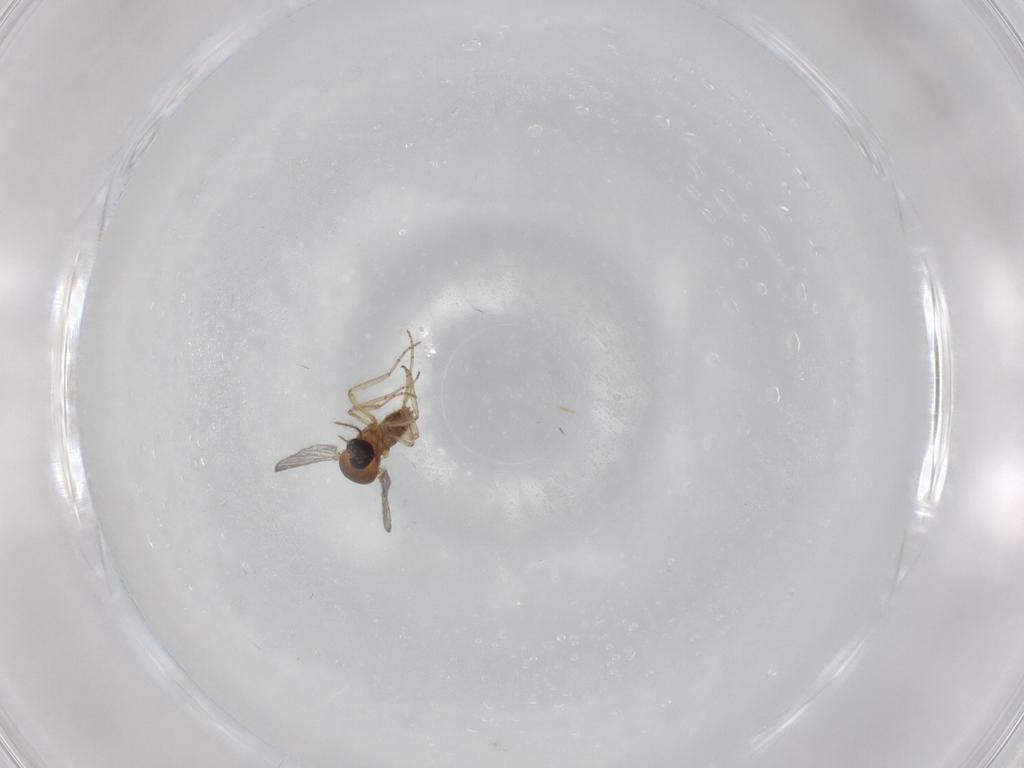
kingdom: Animalia
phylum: Arthropoda
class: Insecta
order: Diptera
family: Ceratopogonidae
